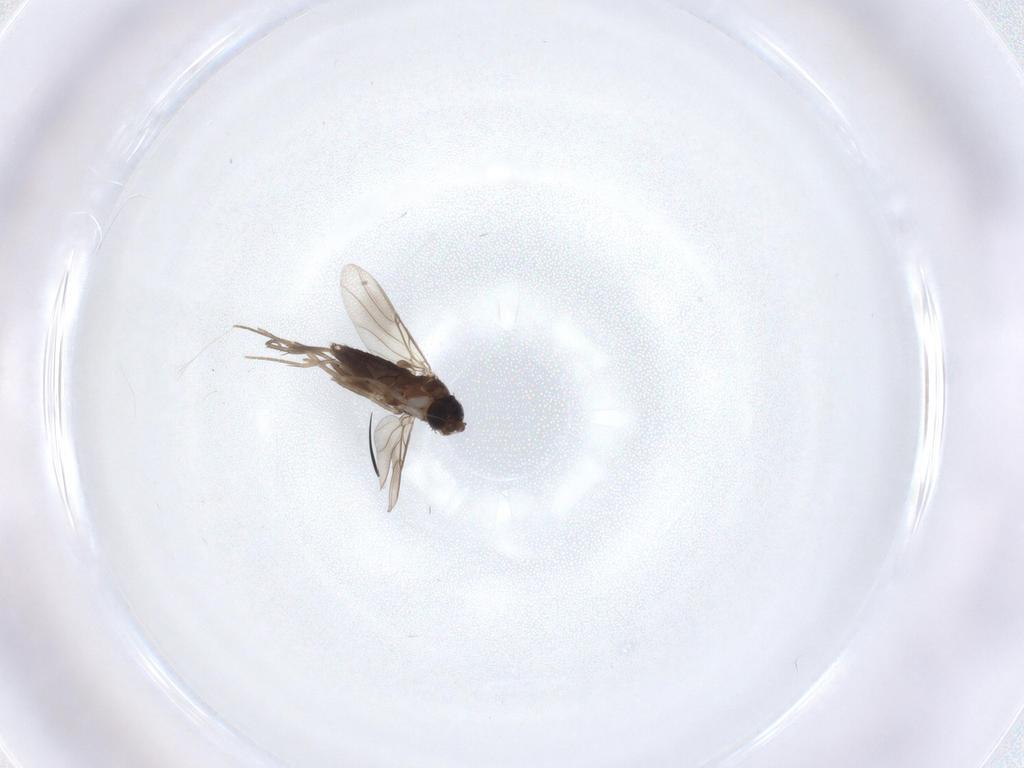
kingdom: Animalia
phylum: Arthropoda
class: Insecta
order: Diptera
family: Phoridae
